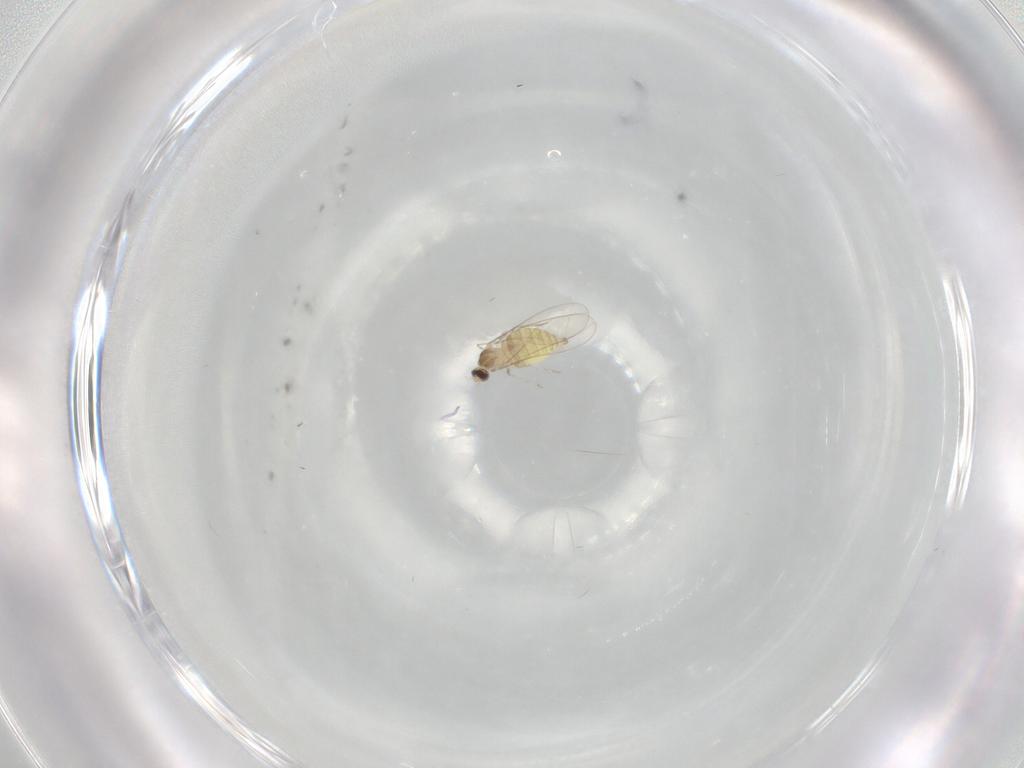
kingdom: Animalia
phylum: Arthropoda
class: Insecta
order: Diptera
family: Cecidomyiidae
